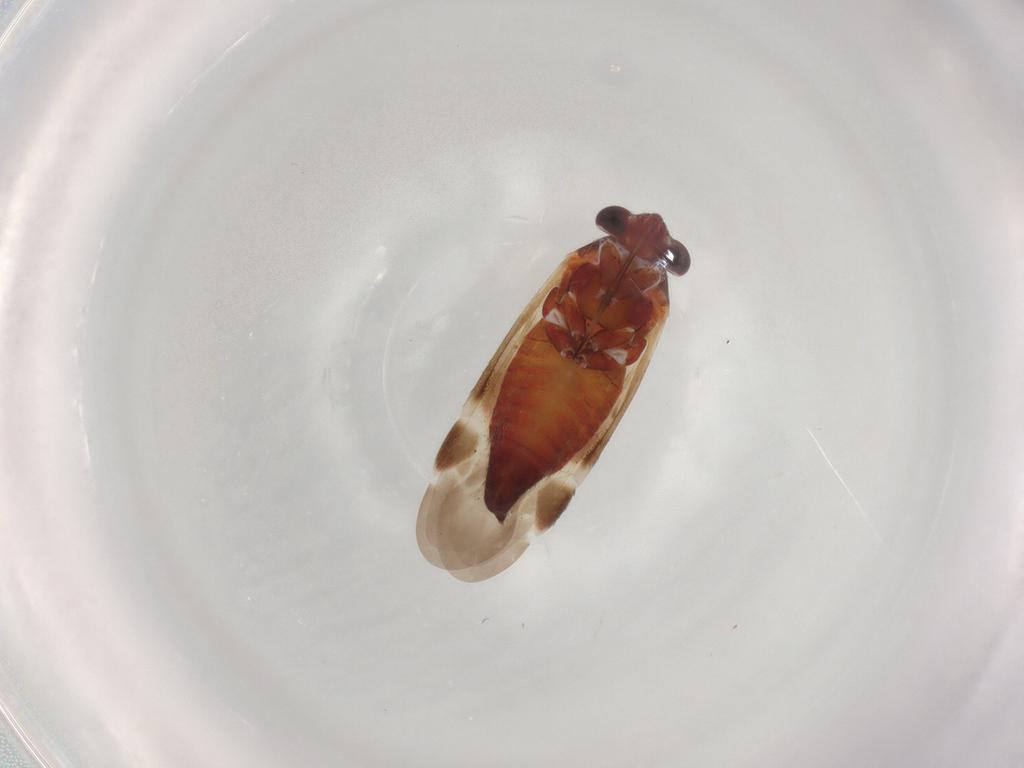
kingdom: Animalia
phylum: Arthropoda
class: Insecta
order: Hemiptera
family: Miridae
